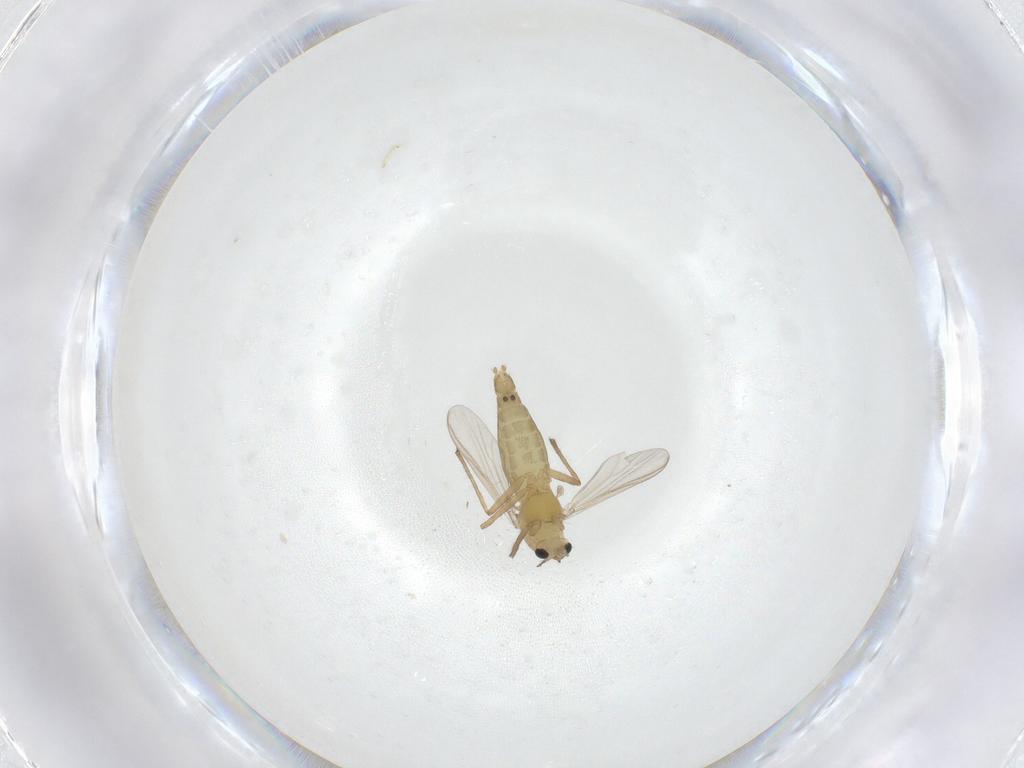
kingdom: Animalia
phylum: Arthropoda
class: Insecta
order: Diptera
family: Chironomidae
